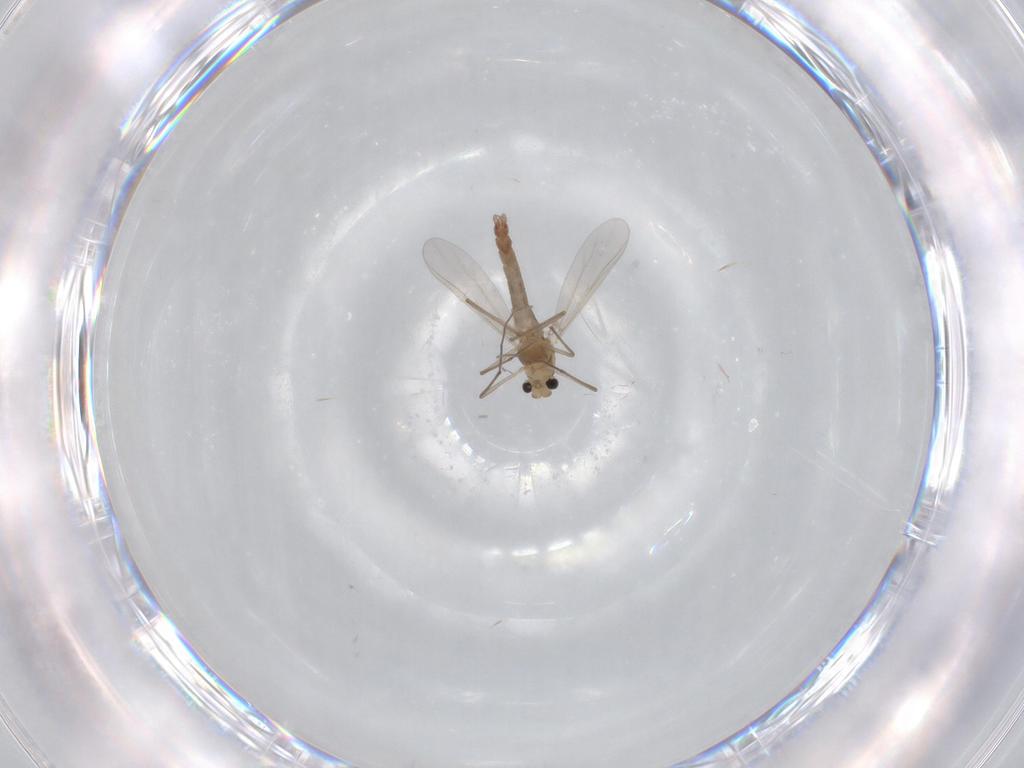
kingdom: Animalia
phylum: Arthropoda
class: Insecta
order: Diptera
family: Chironomidae
